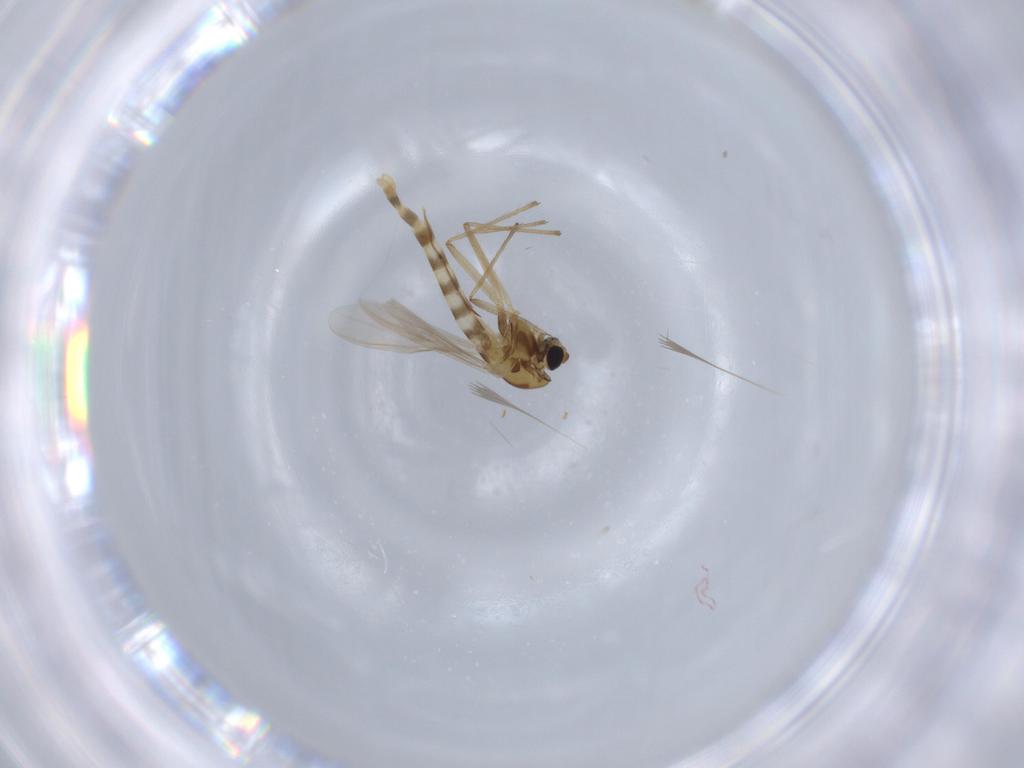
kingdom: Animalia
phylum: Arthropoda
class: Insecta
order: Diptera
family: Chironomidae
